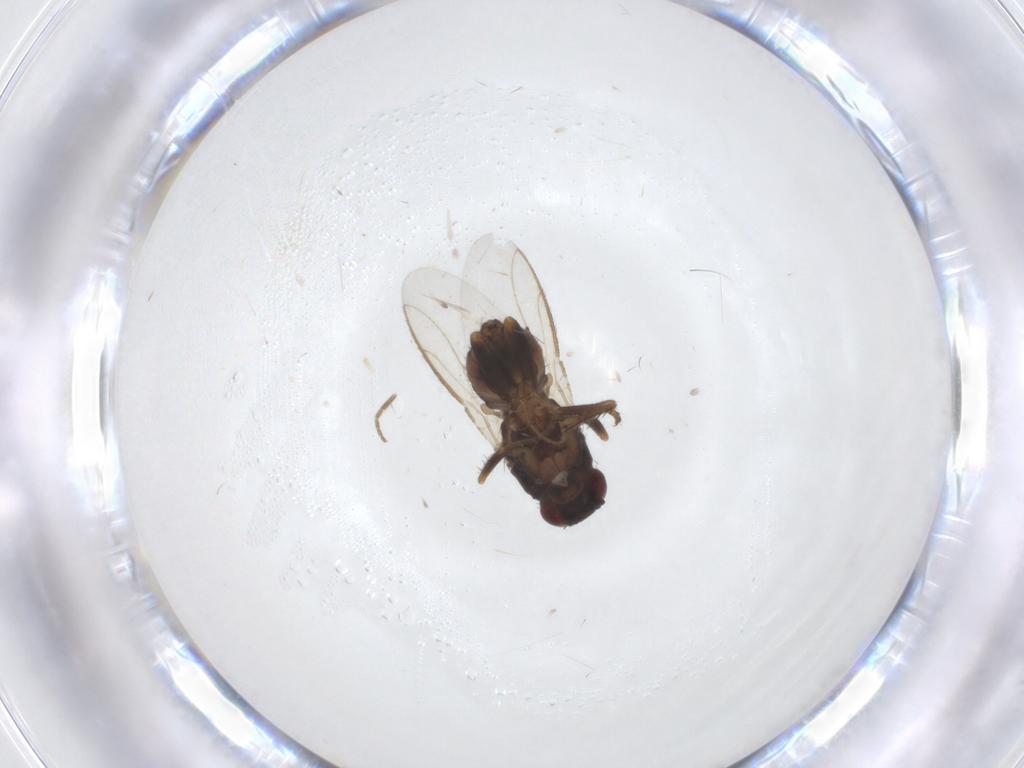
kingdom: Animalia
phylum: Arthropoda
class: Insecta
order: Diptera
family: Sphaeroceridae
